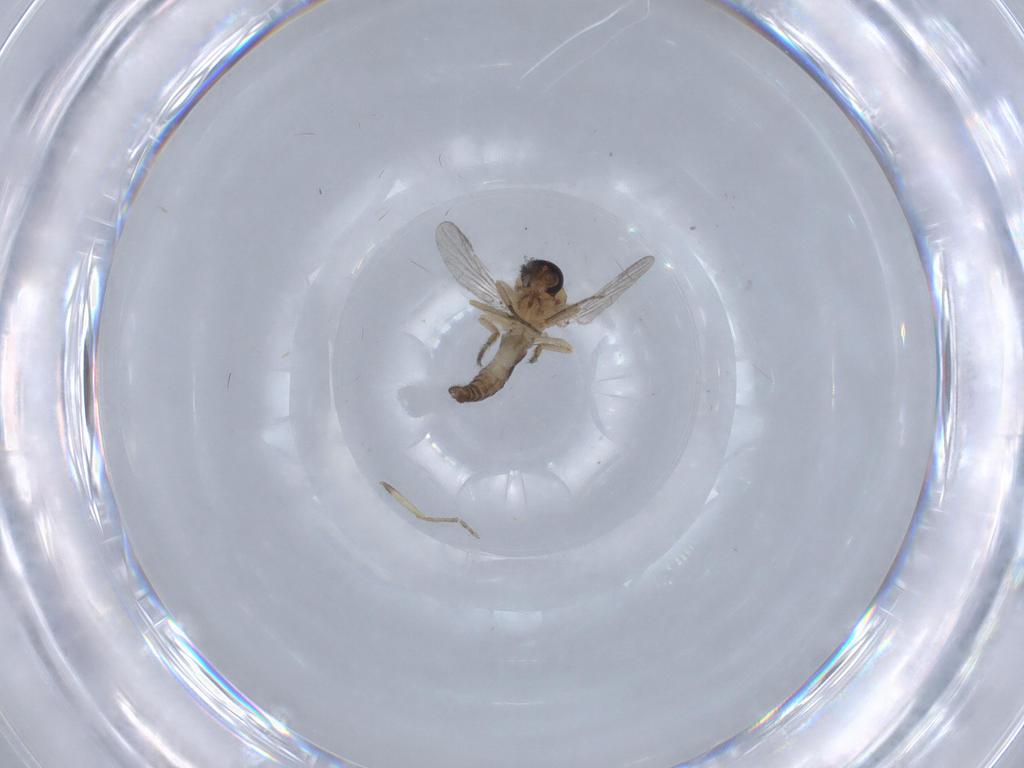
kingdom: Animalia
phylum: Arthropoda
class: Insecta
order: Diptera
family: Ceratopogonidae
